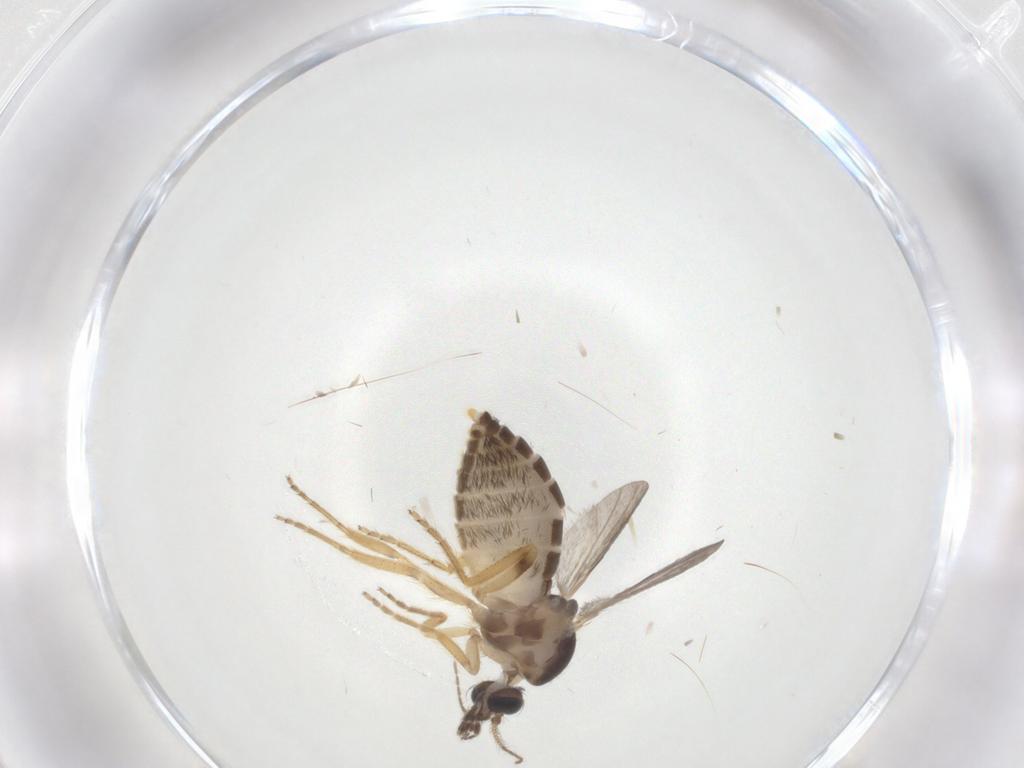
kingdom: Animalia
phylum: Arthropoda
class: Insecta
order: Diptera
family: Ceratopogonidae
